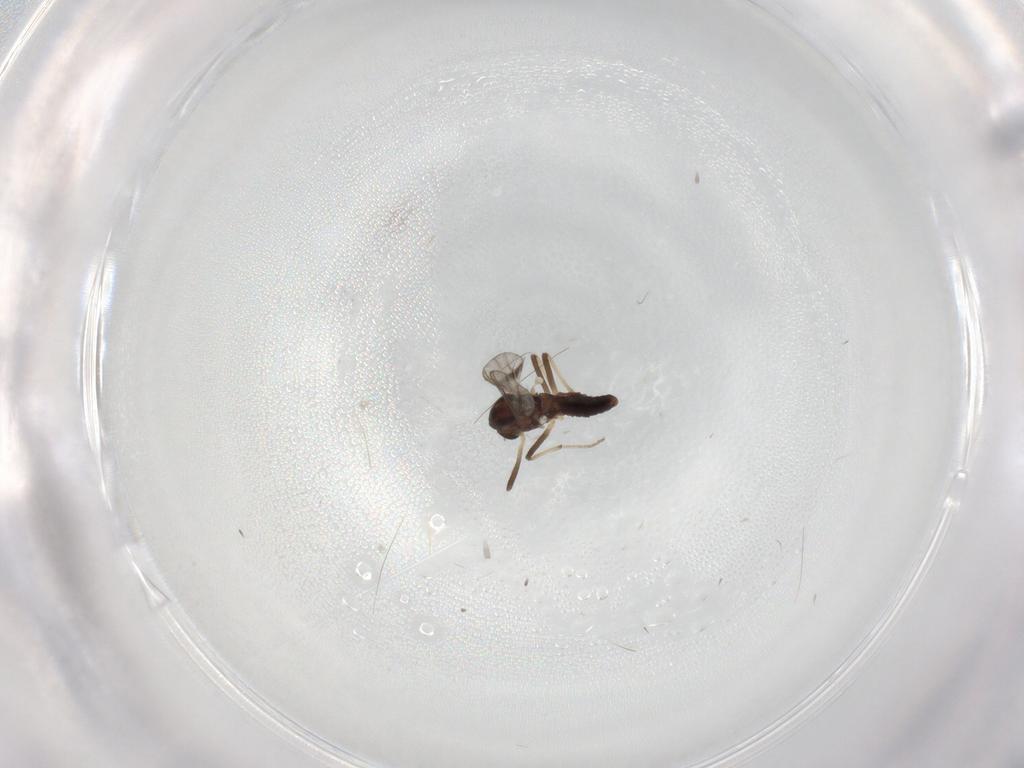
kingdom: Animalia
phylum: Arthropoda
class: Insecta
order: Diptera
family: Chironomidae
